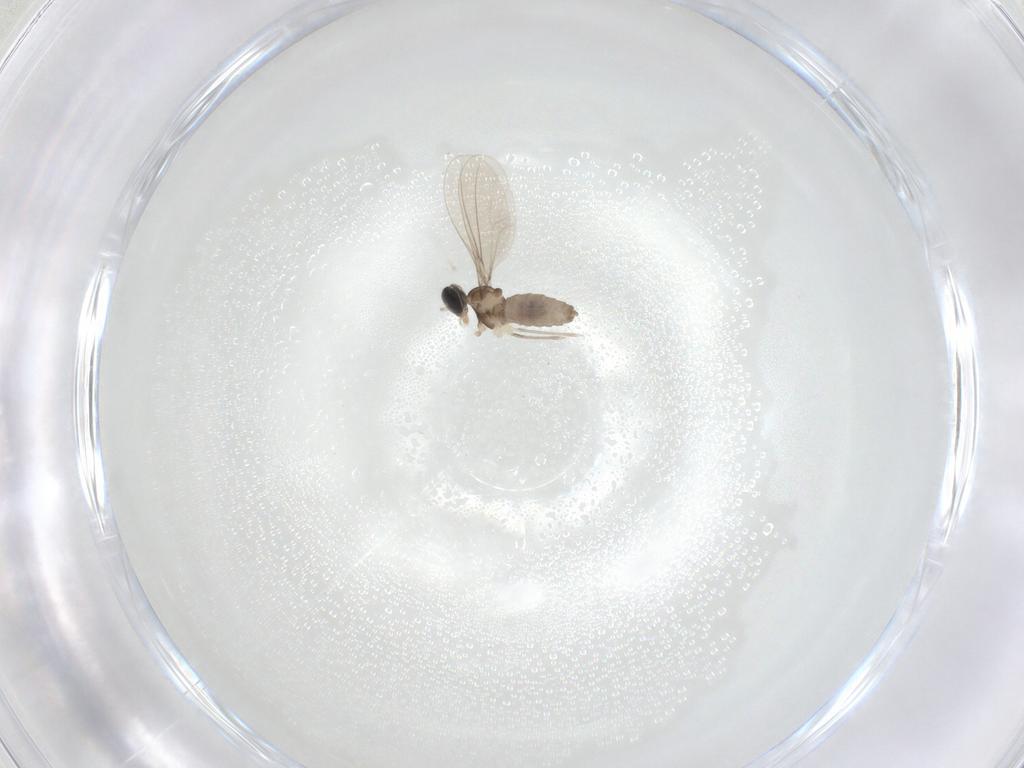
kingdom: Animalia
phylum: Arthropoda
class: Insecta
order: Diptera
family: Cecidomyiidae
